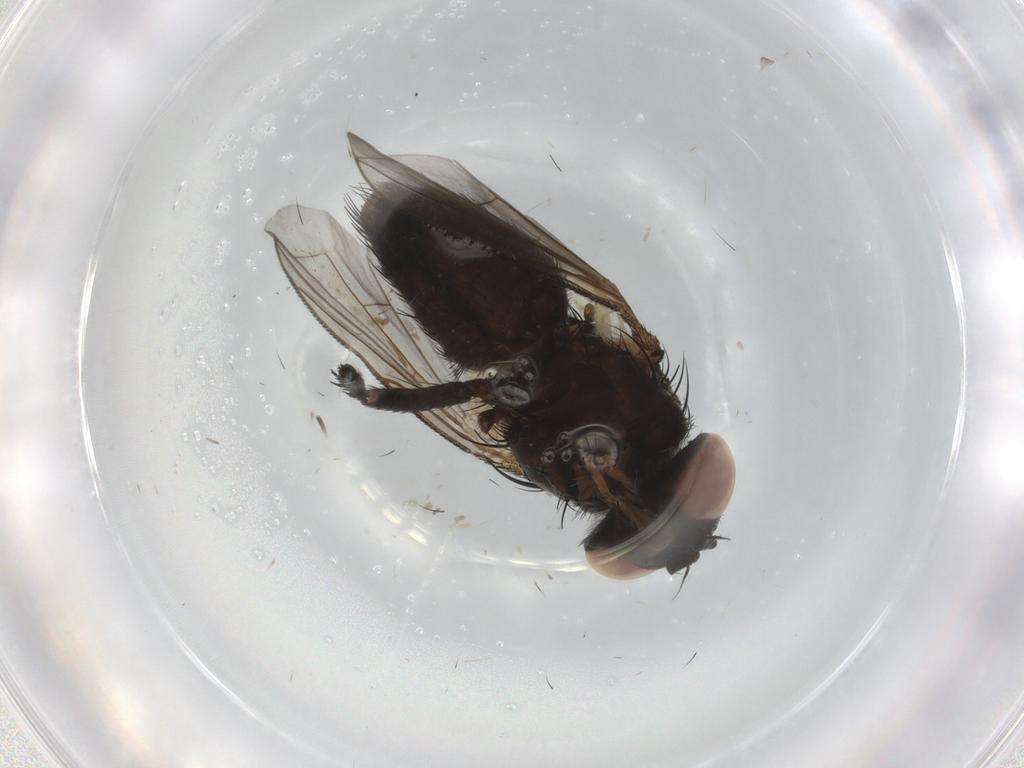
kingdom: Animalia
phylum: Arthropoda
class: Insecta
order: Diptera
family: Tachinidae
